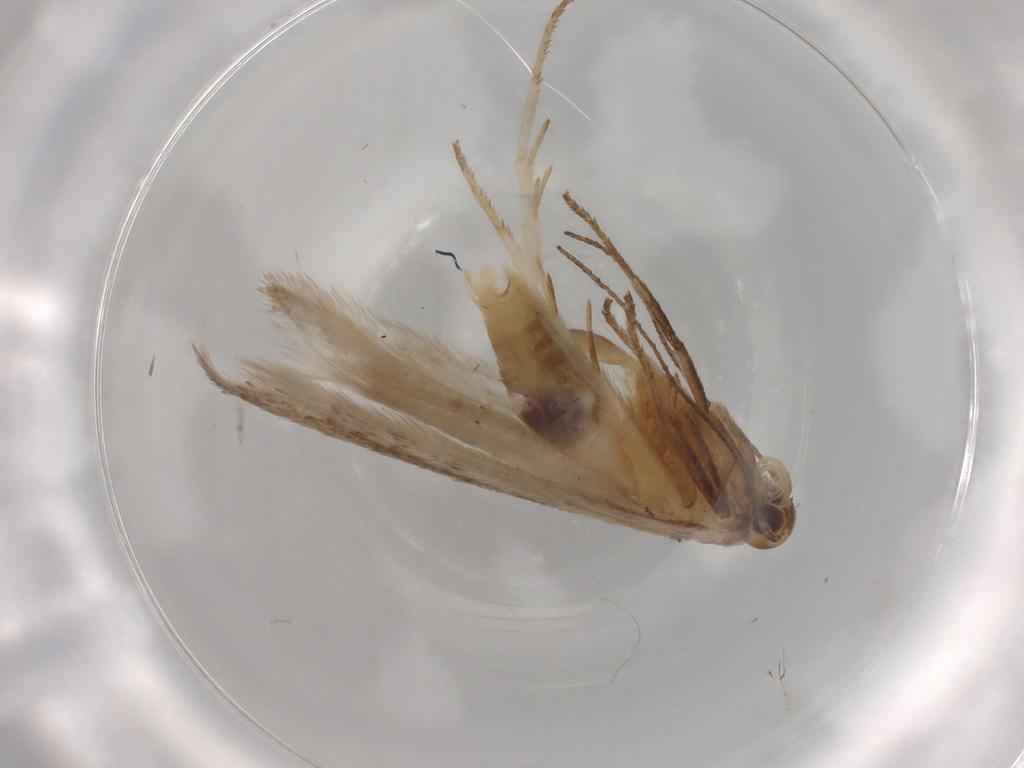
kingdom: Animalia
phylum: Arthropoda
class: Insecta
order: Lepidoptera
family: Gelechiidae
